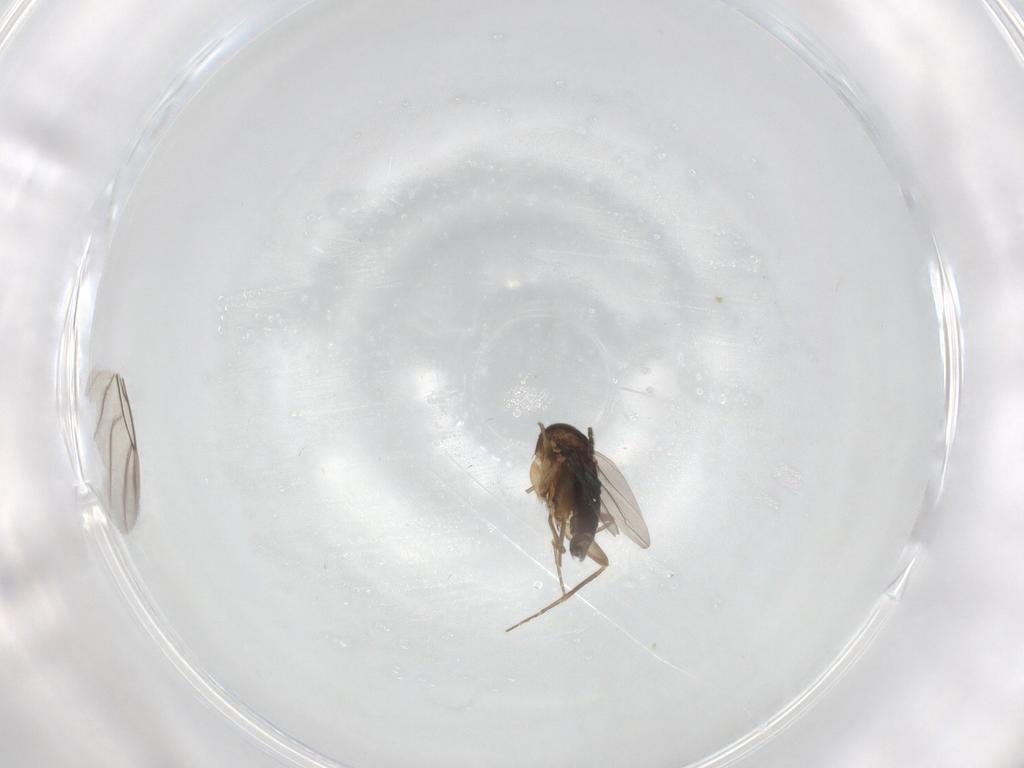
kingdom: Animalia
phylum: Arthropoda
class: Insecta
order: Diptera
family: Phoridae
